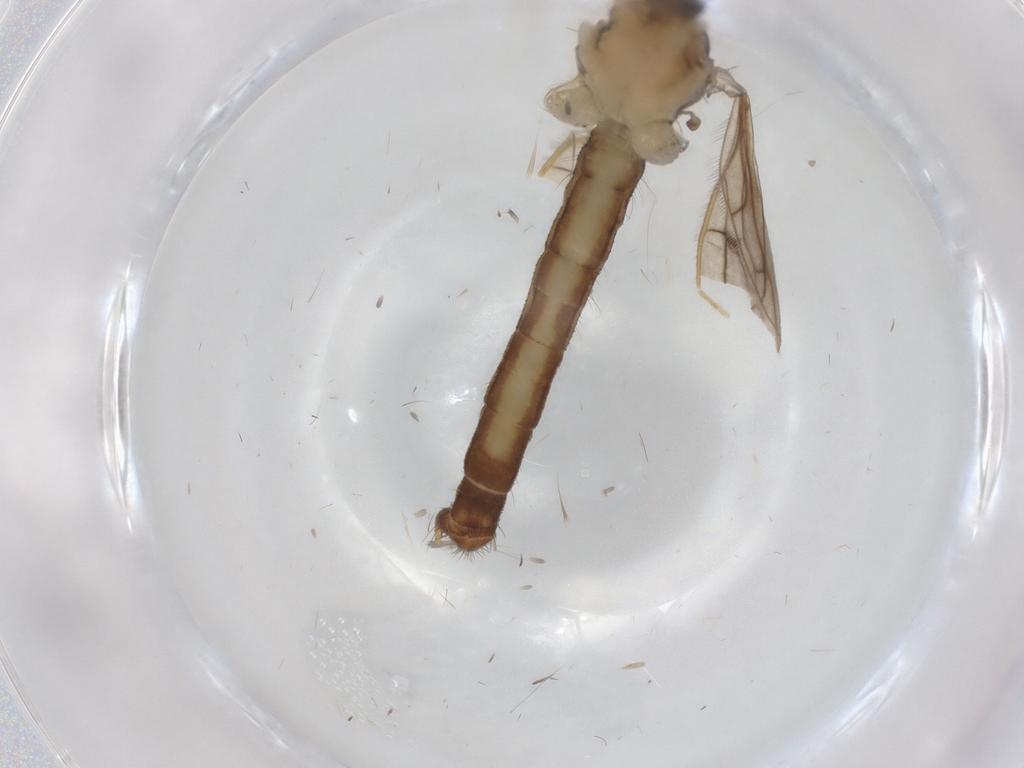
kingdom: Animalia
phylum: Arthropoda
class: Insecta
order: Diptera
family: Limoniidae
